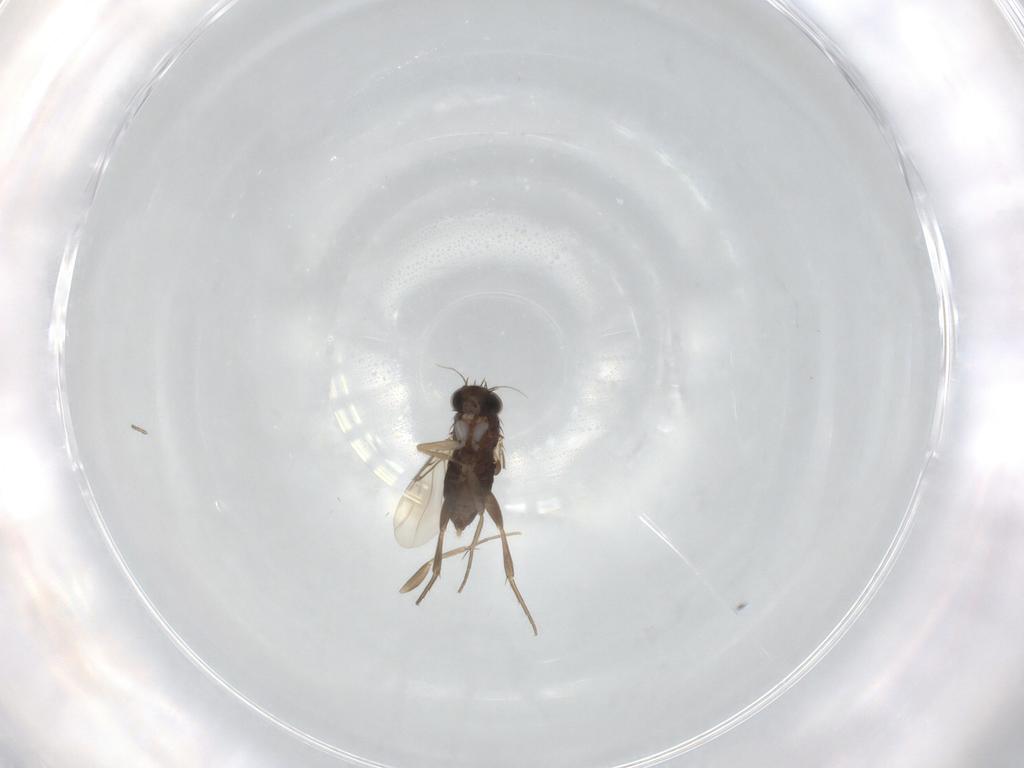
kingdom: Animalia
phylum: Arthropoda
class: Insecta
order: Diptera
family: Phoridae
